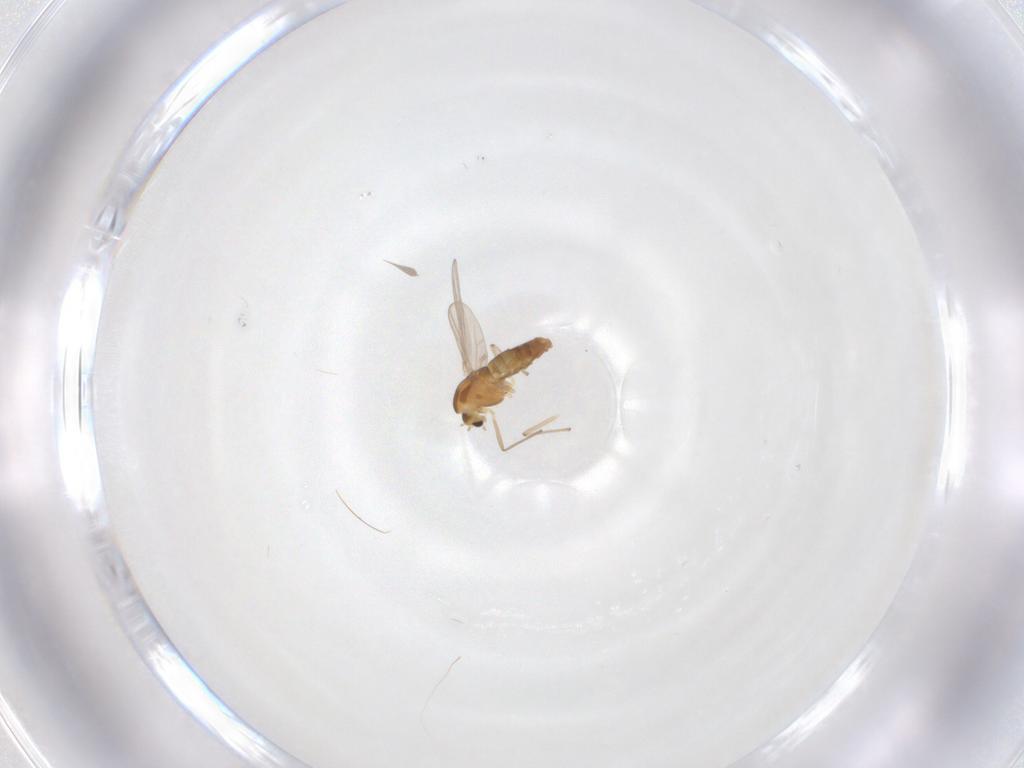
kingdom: Animalia
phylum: Arthropoda
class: Insecta
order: Diptera
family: Chironomidae
